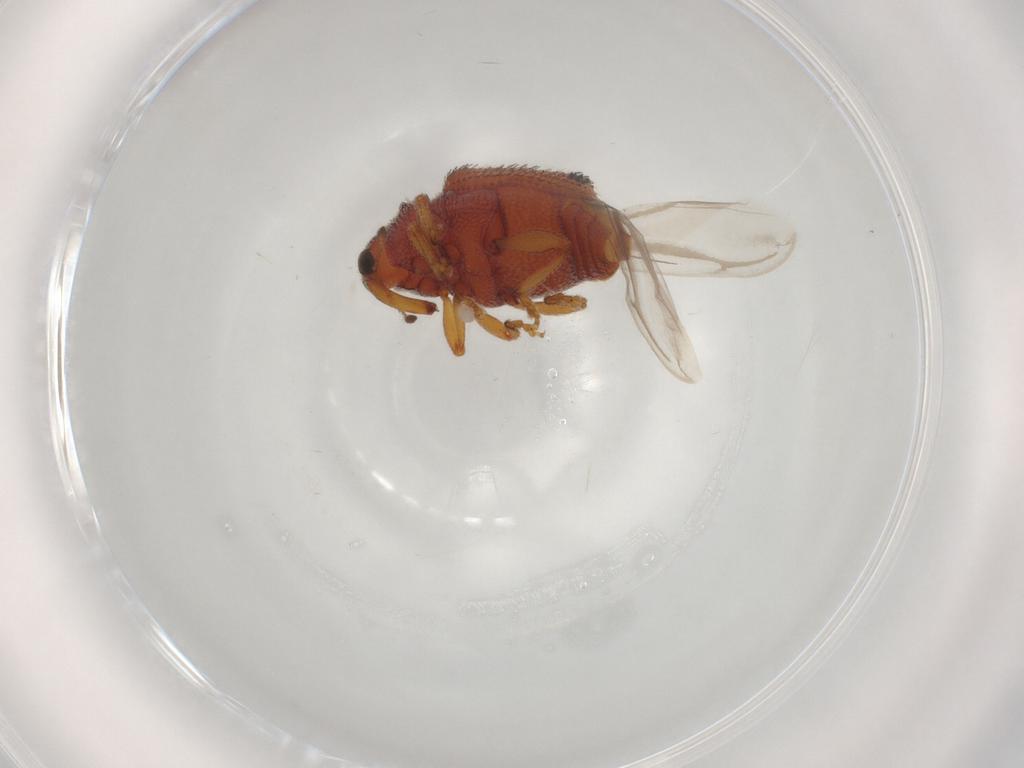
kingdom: Animalia
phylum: Arthropoda
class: Insecta
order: Coleoptera
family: Curculionidae
